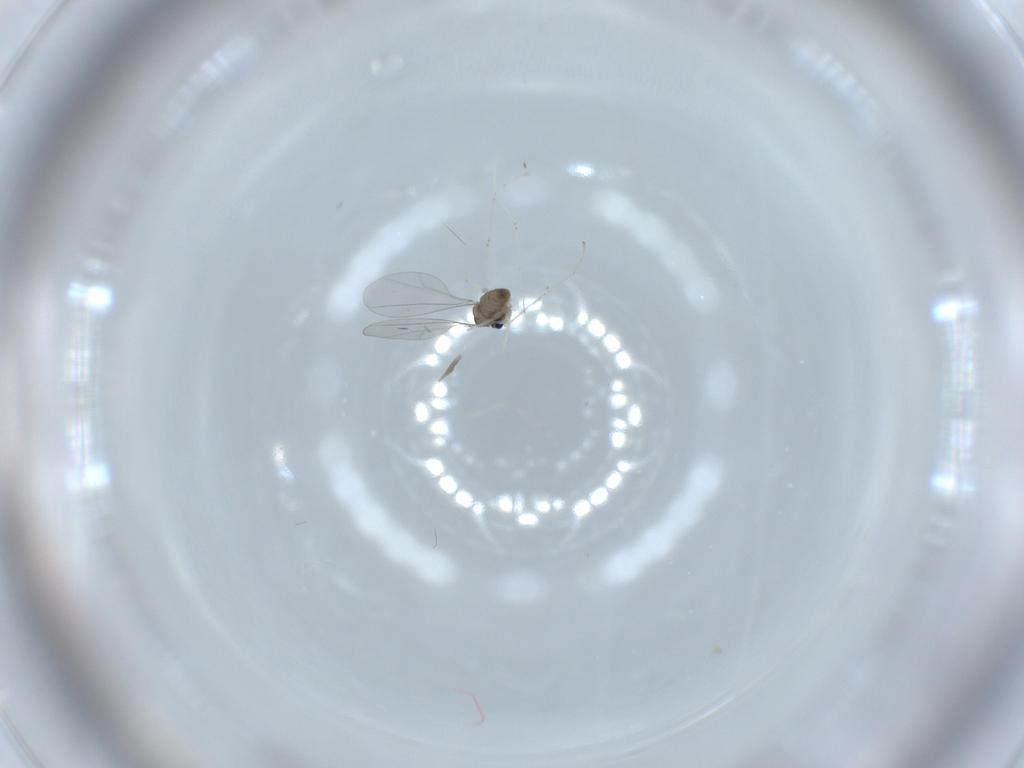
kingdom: Animalia
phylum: Arthropoda
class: Insecta
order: Diptera
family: Ceratopogonidae
